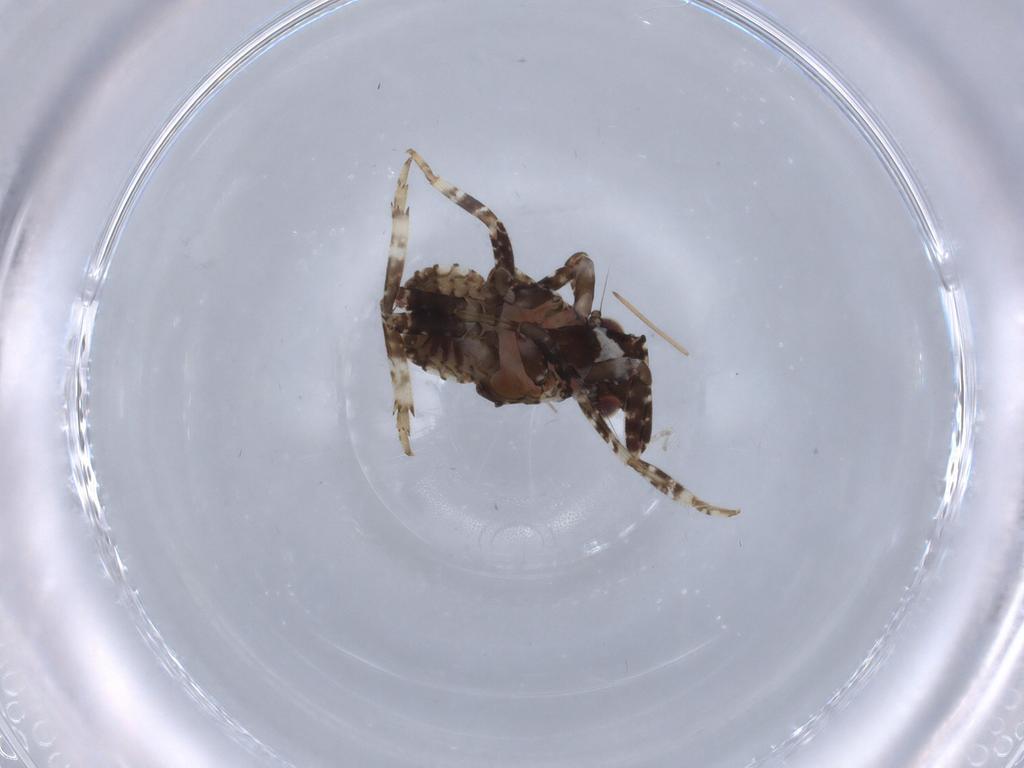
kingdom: Animalia
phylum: Arthropoda
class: Insecta
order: Hemiptera
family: Fulgoridae
